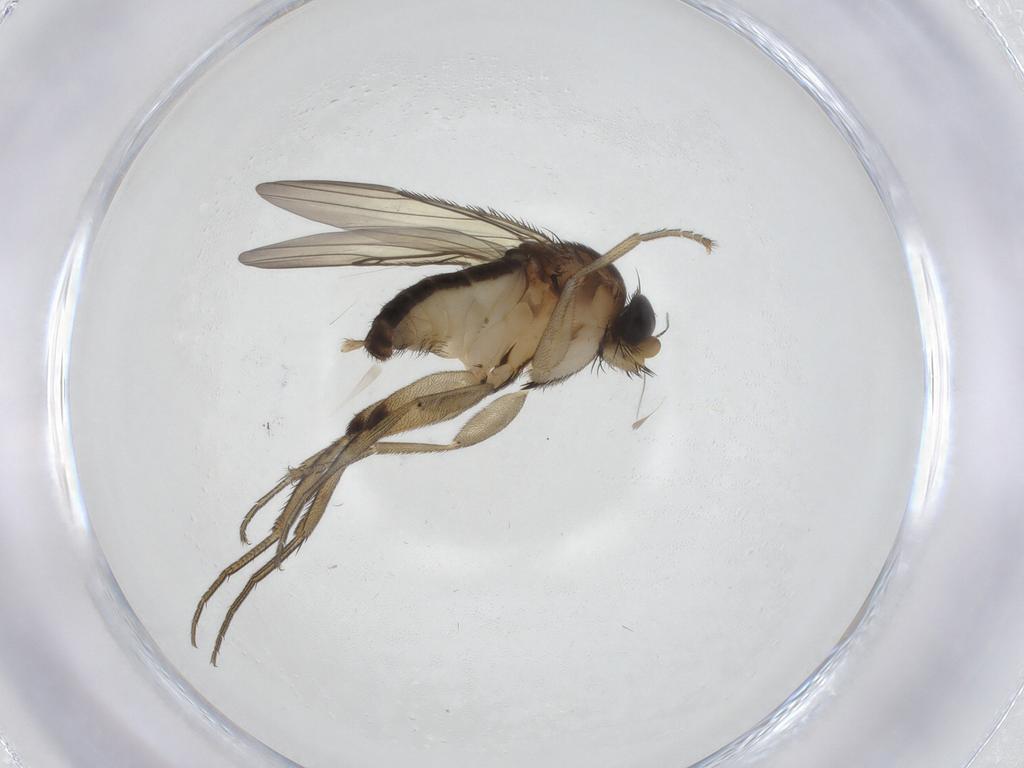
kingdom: Animalia
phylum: Arthropoda
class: Insecta
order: Diptera
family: Phoridae
